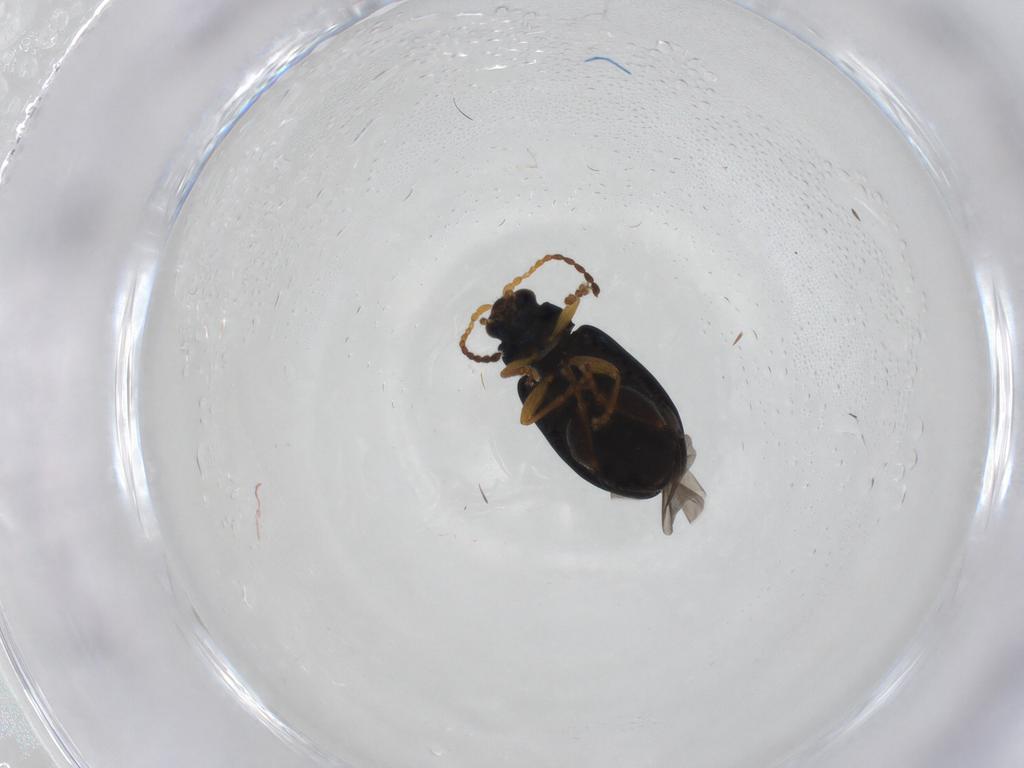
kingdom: Animalia
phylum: Arthropoda
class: Insecta
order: Coleoptera
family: Chrysomelidae
